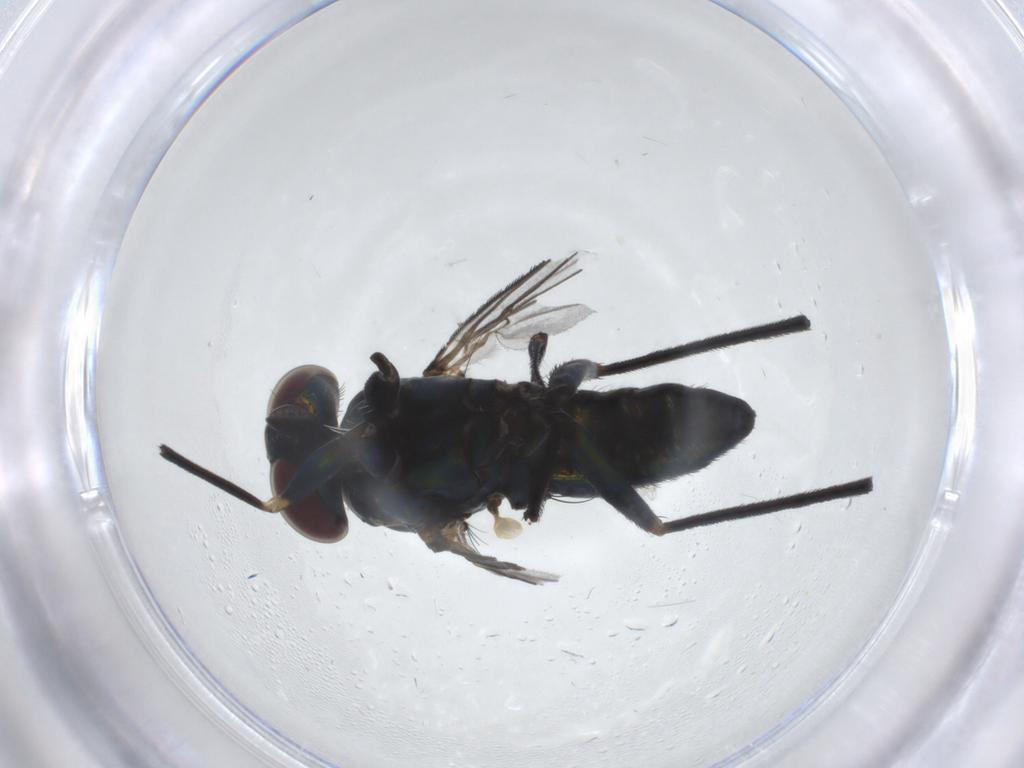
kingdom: Animalia
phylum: Arthropoda
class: Insecta
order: Diptera
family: Dolichopodidae
